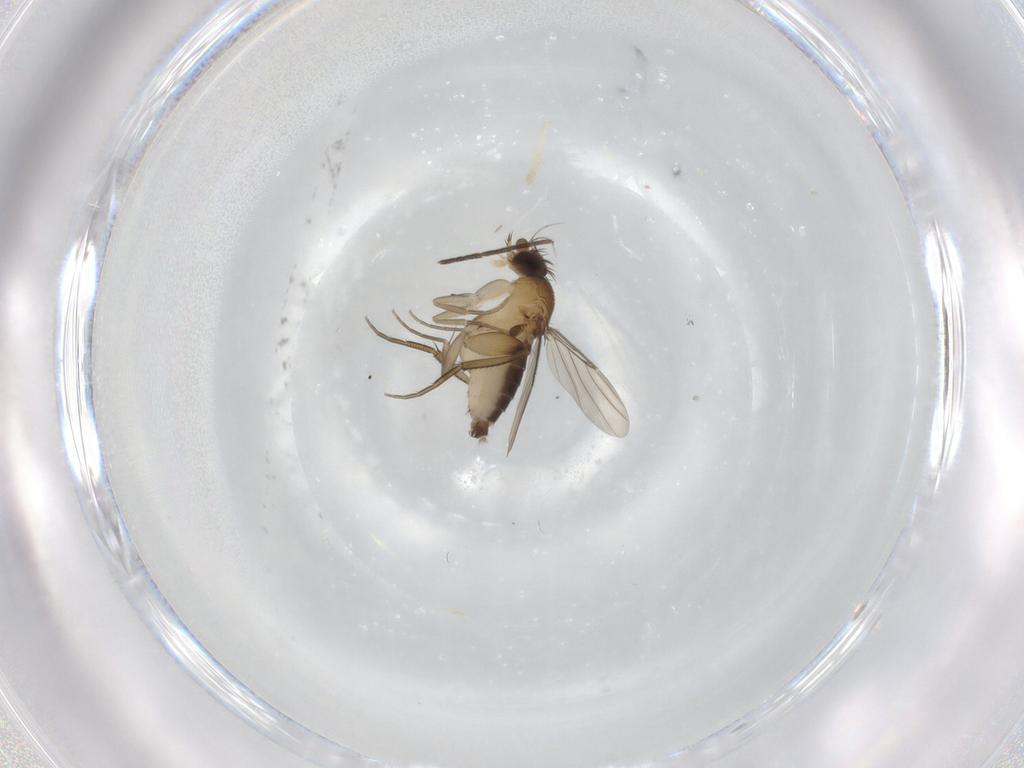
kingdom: Animalia
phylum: Arthropoda
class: Insecta
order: Diptera
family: Phoridae
